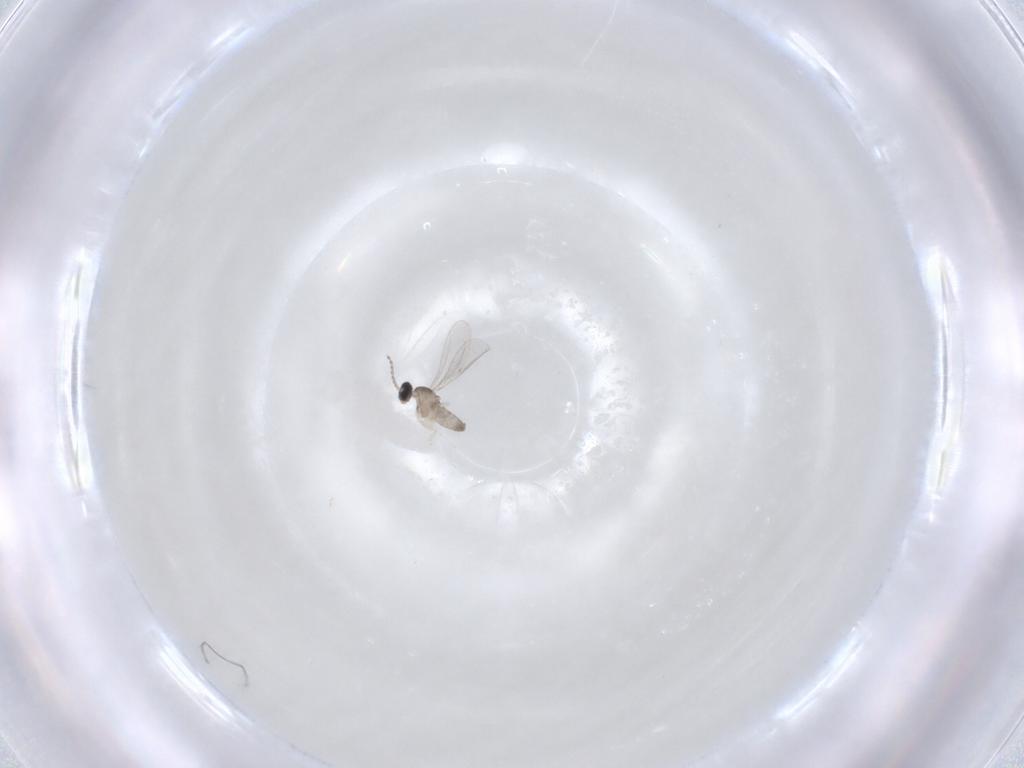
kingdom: Animalia
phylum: Arthropoda
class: Insecta
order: Diptera
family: Cecidomyiidae
